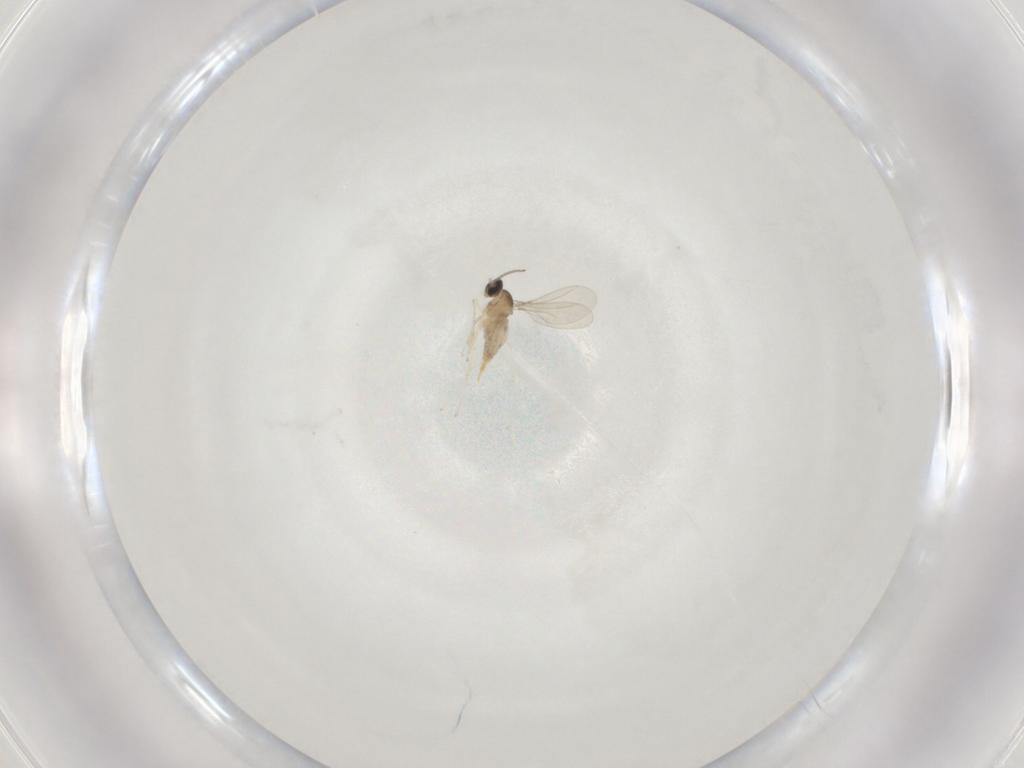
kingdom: Animalia
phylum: Arthropoda
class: Insecta
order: Diptera
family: Cecidomyiidae
